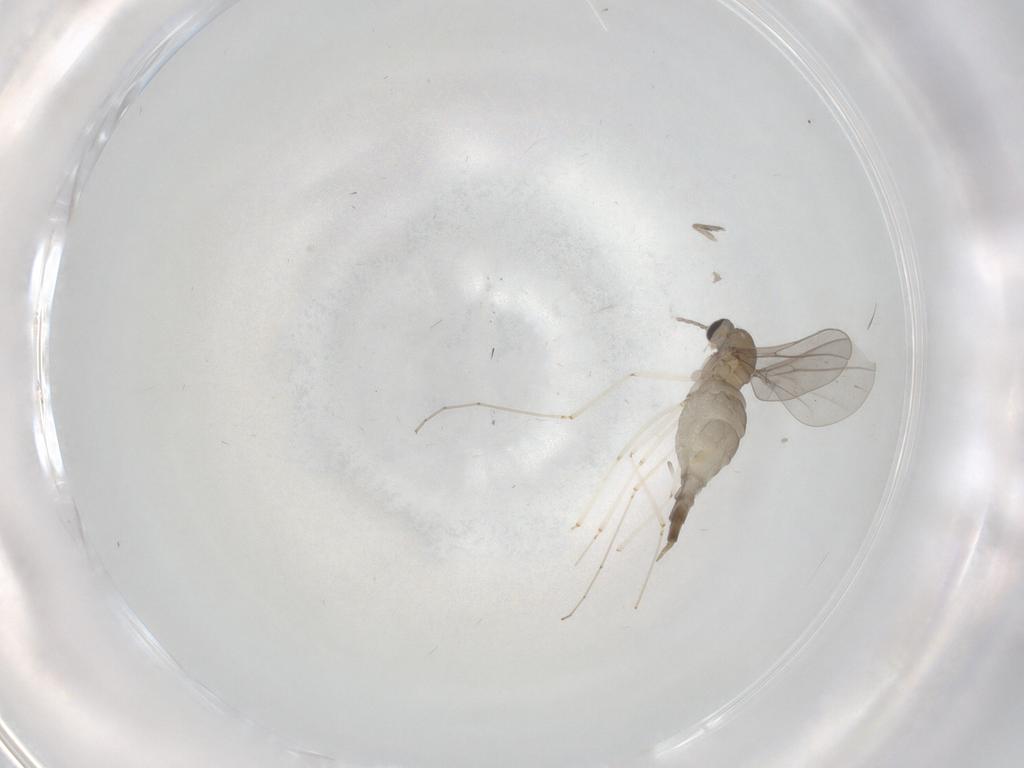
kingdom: Animalia
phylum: Arthropoda
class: Insecta
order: Diptera
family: Cecidomyiidae
